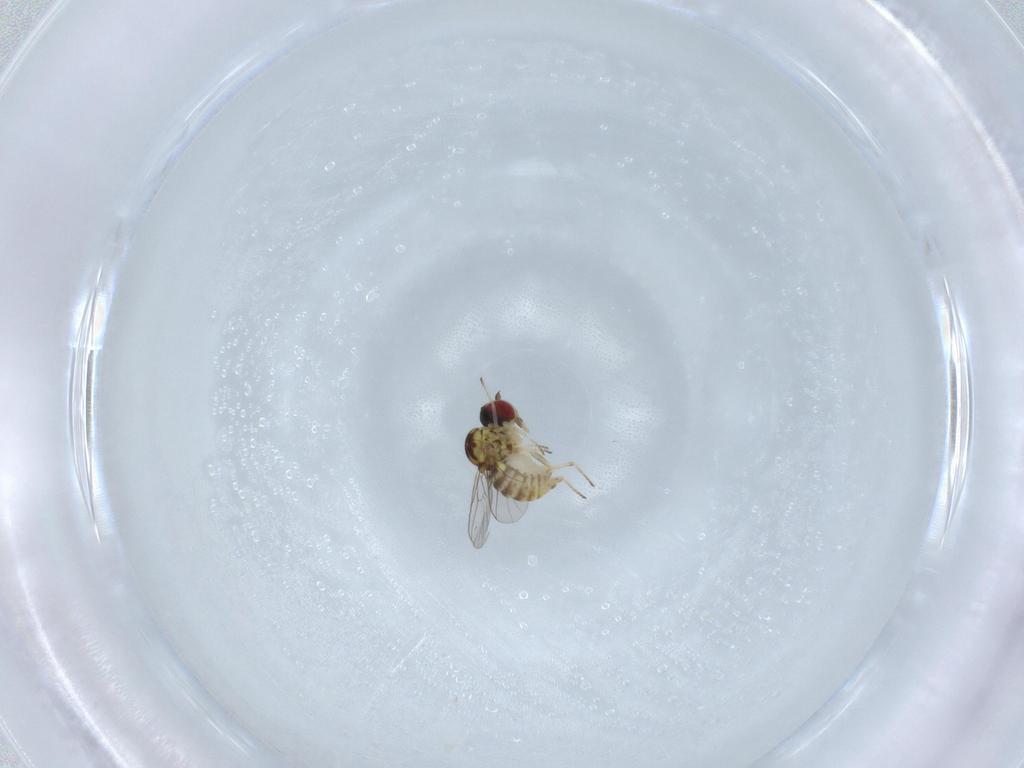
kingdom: Animalia
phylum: Arthropoda
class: Insecta
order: Diptera
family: Bombyliidae
